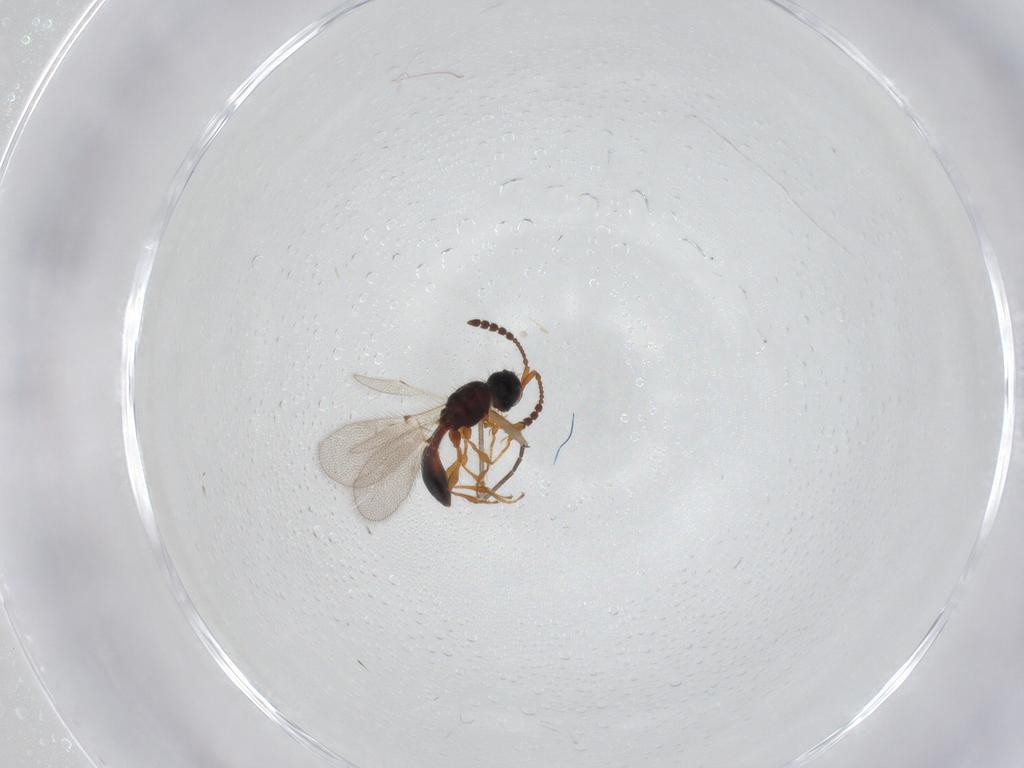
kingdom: Animalia
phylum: Arthropoda
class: Insecta
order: Hymenoptera
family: Diapriidae
